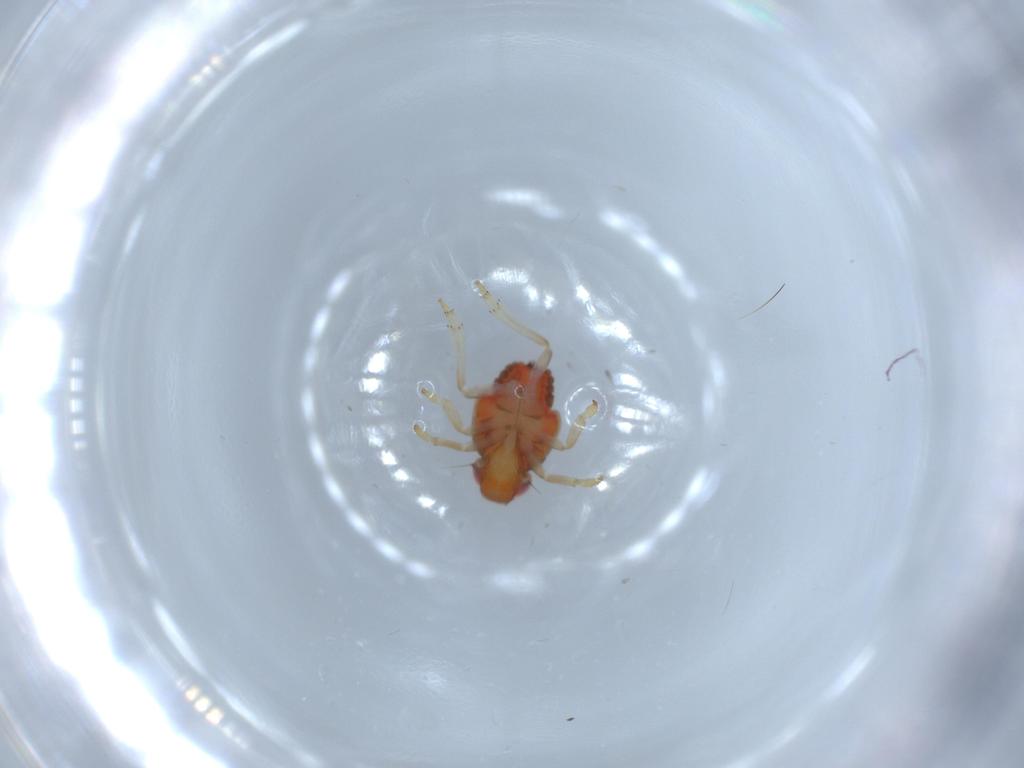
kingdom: Animalia
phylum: Arthropoda
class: Insecta
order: Hemiptera
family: Issidae
